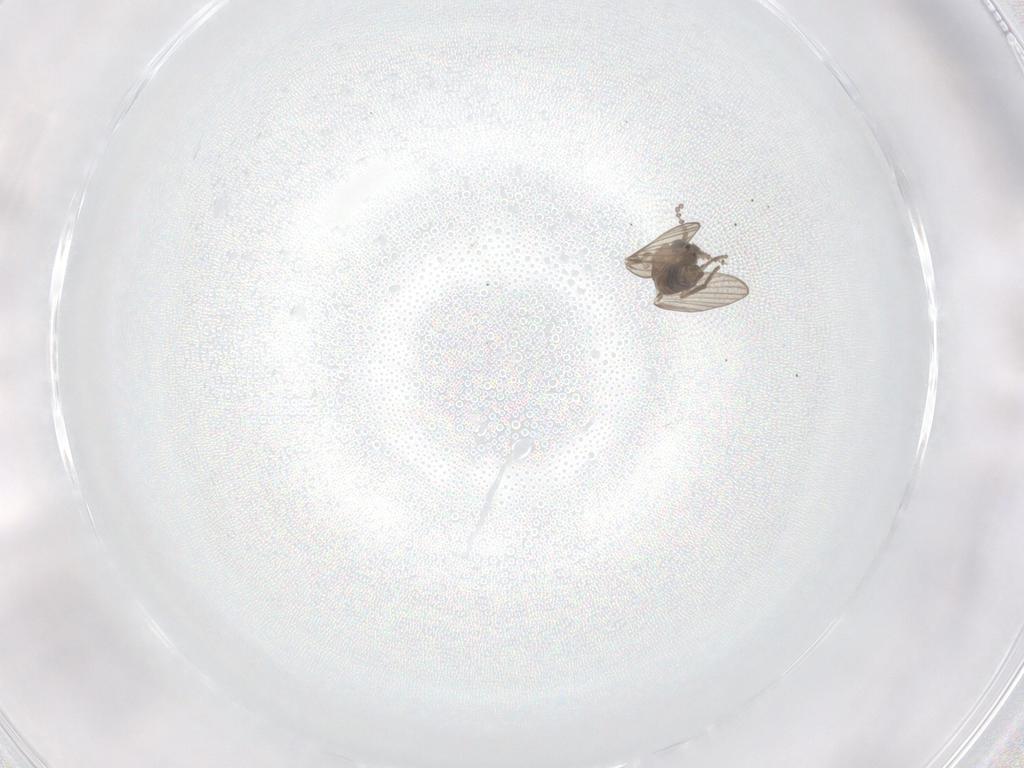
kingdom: Animalia
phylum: Arthropoda
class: Insecta
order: Diptera
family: Psychodidae
